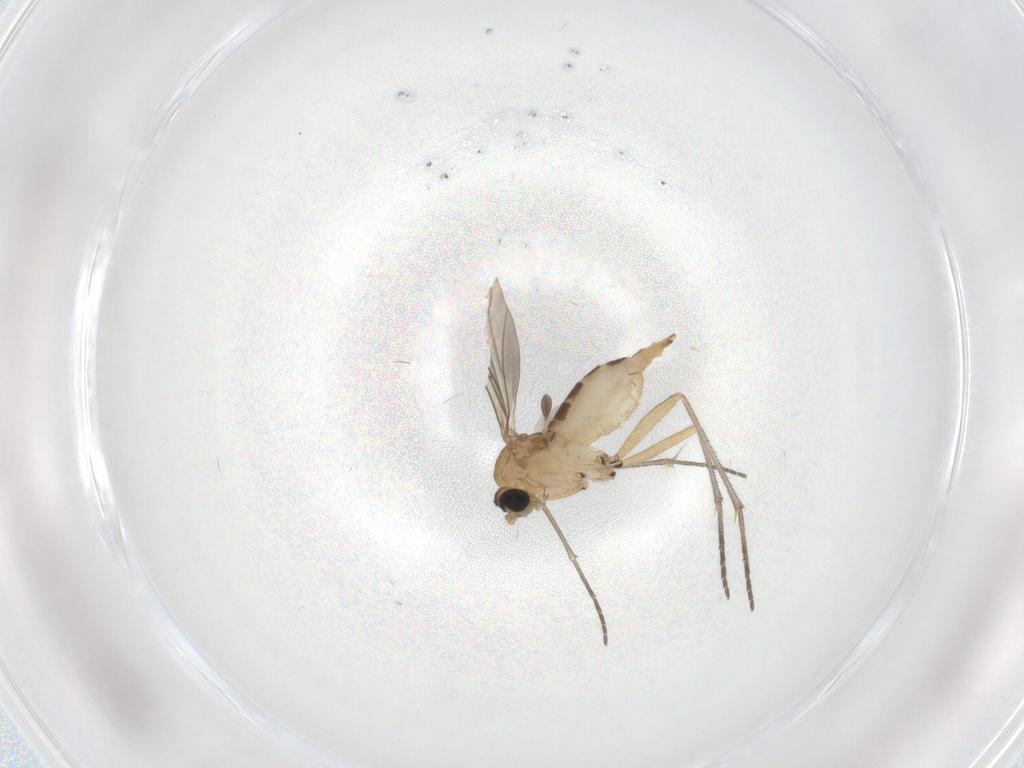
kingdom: Animalia
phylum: Arthropoda
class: Insecta
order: Diptera
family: Sciaridae
